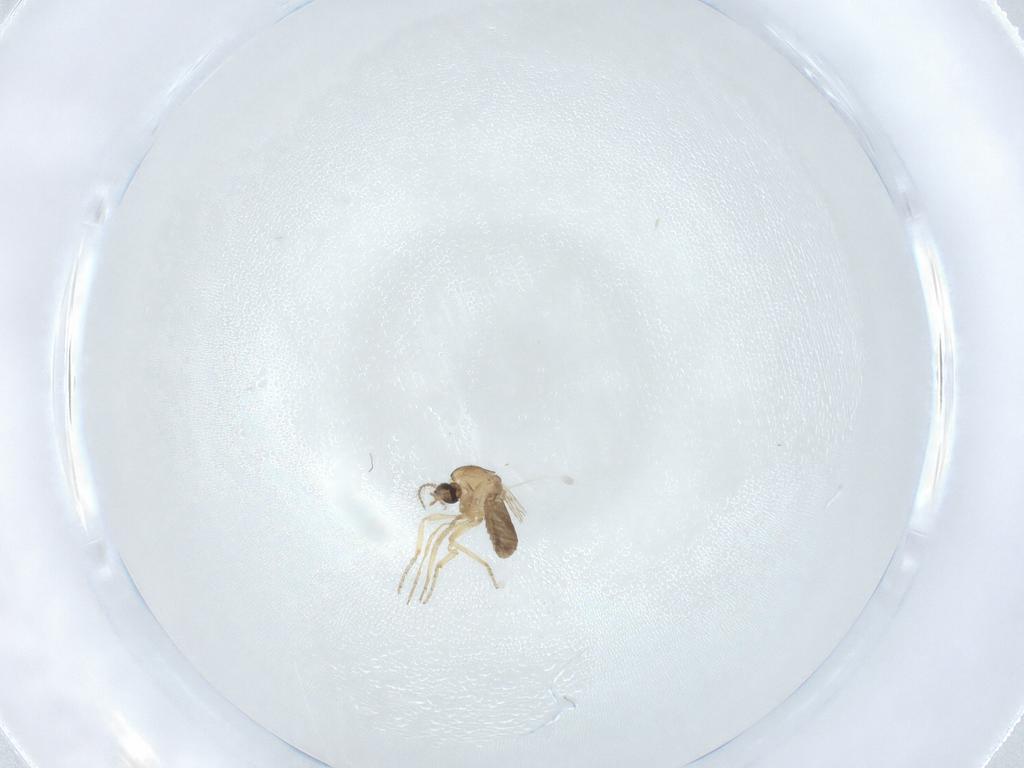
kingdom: Animalia
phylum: Arthropoda
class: Insecta
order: Diptera
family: Ceratopogonidae
